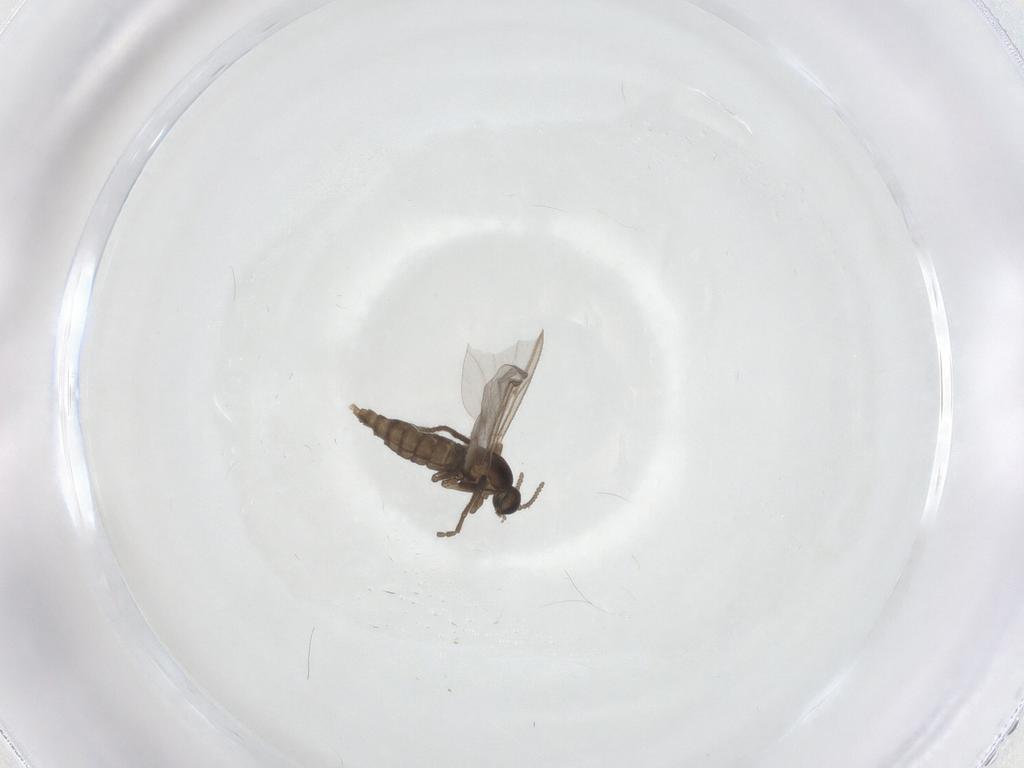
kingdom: Animalia
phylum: Arthropoda
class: Insecta
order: Diptera
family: Cecidomyiidae
